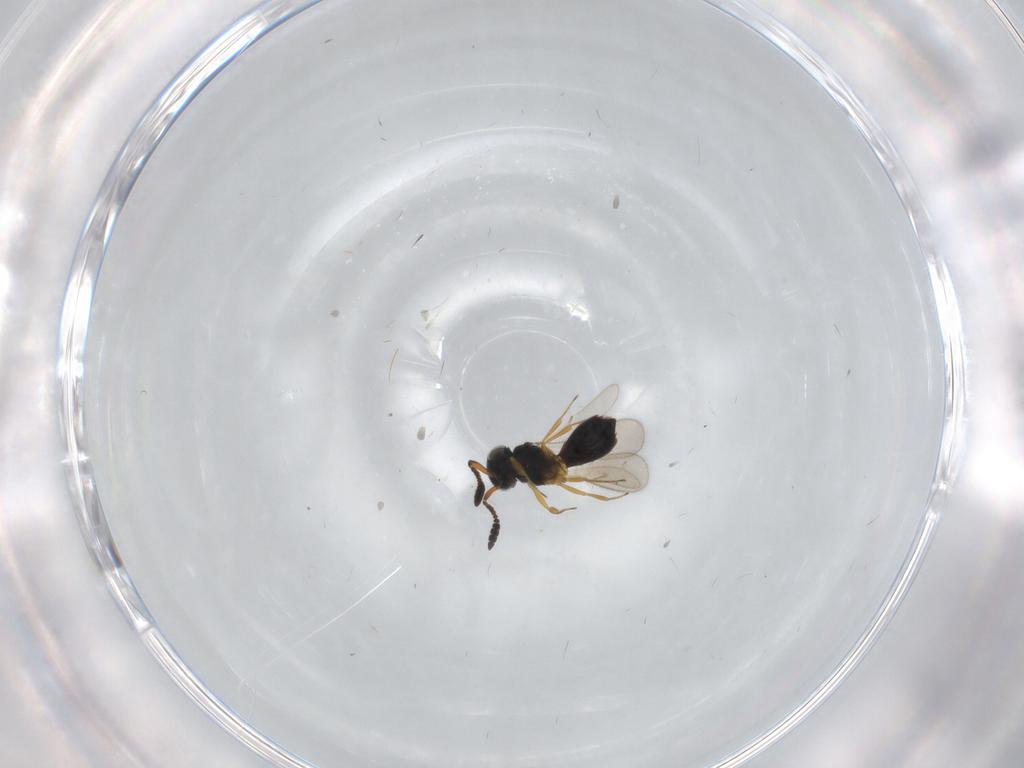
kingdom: Animalia
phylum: Arthropoda
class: Insecta
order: Hymenoptera
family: Scelionidae
